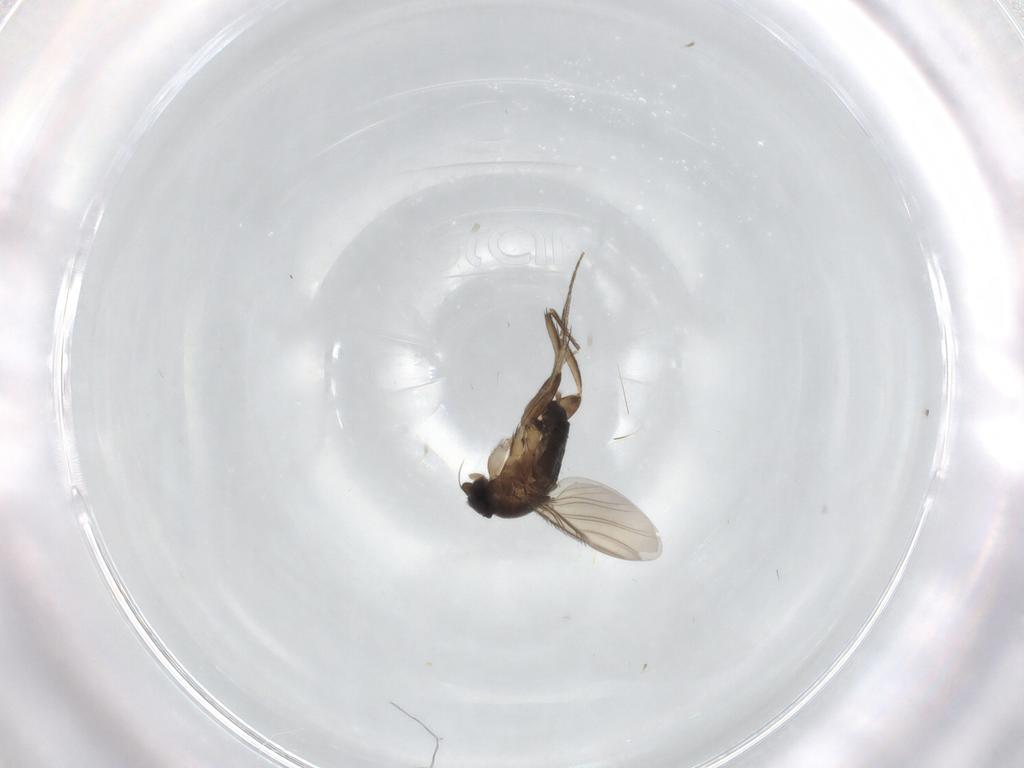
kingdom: Animalia
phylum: Arthropoda
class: Insecta
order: Diptera
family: Phoridae
